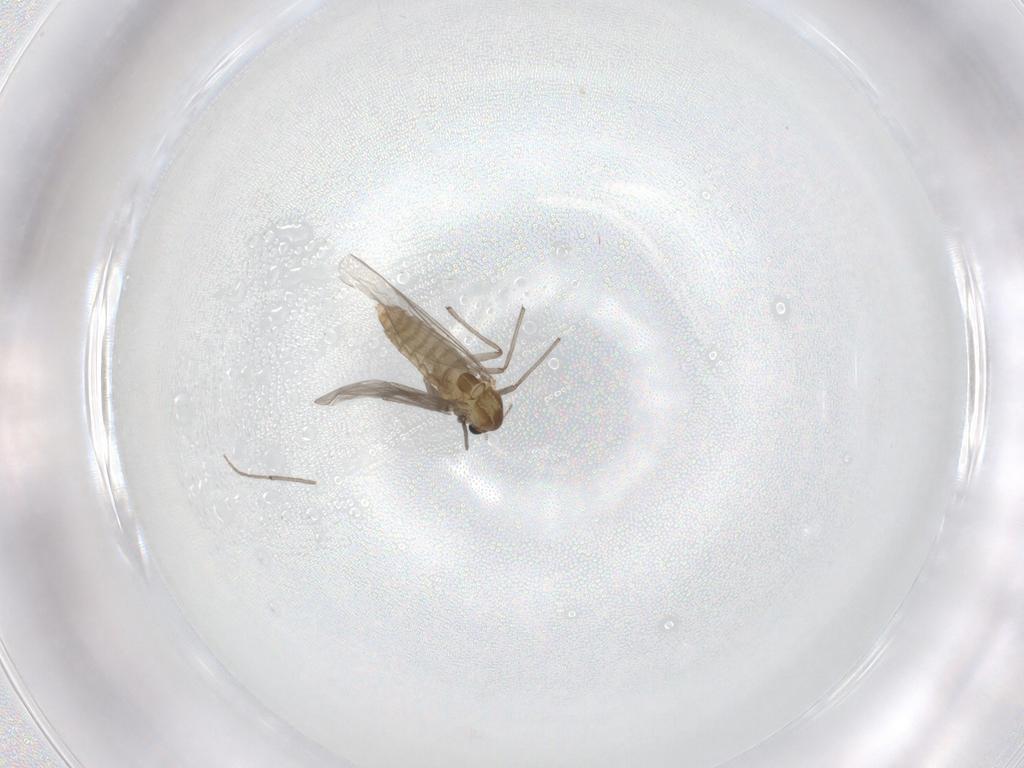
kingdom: Animalia
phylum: Arthropoda
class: Insecta
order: Diptera
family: Chironomidae
